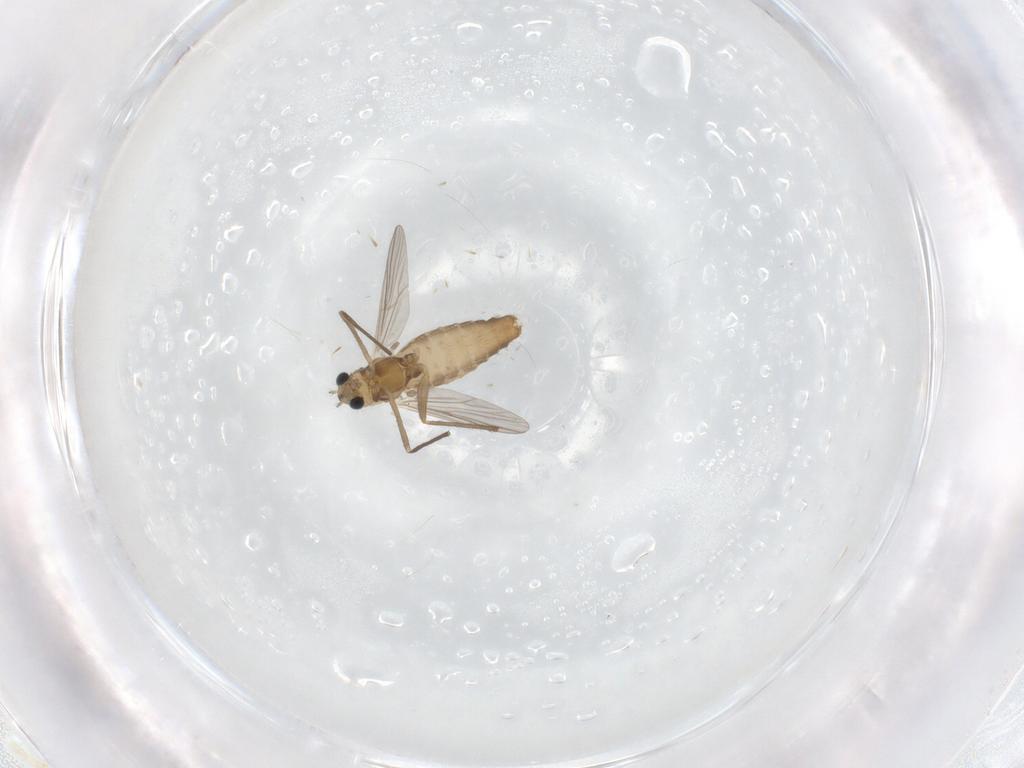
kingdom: Animalia
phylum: Arthropoda
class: Insecta
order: Diptera
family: Chironomidae
